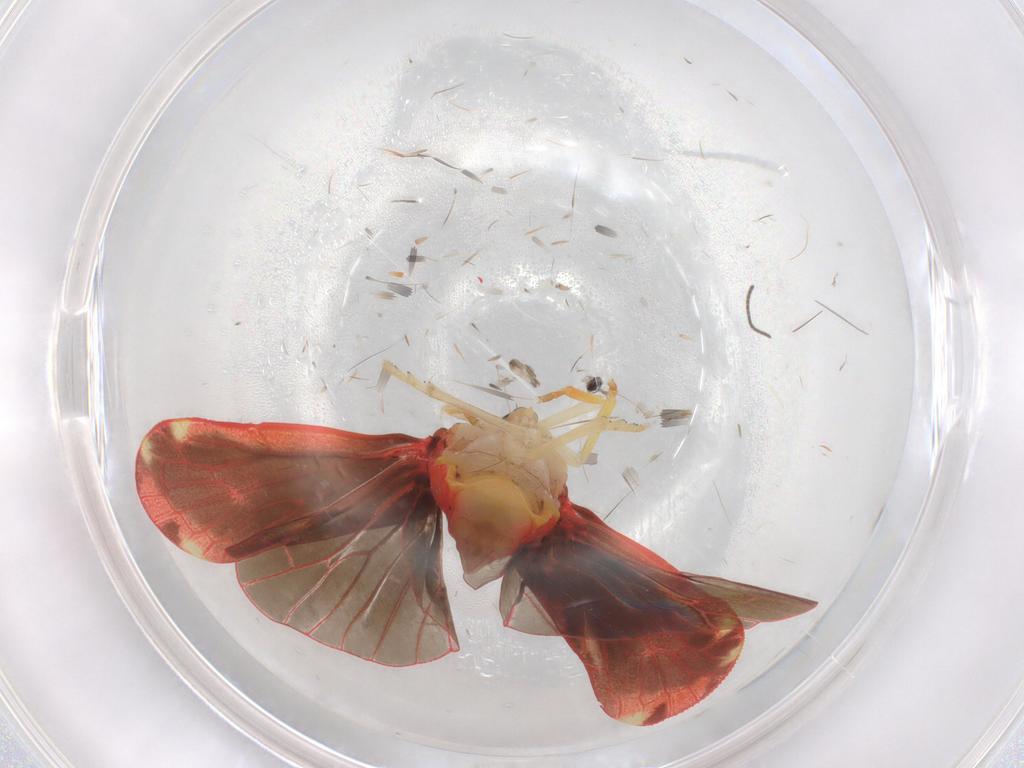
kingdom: Animalia
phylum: Arthropoda
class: Insecta
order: Hemiptera
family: Derbidae
